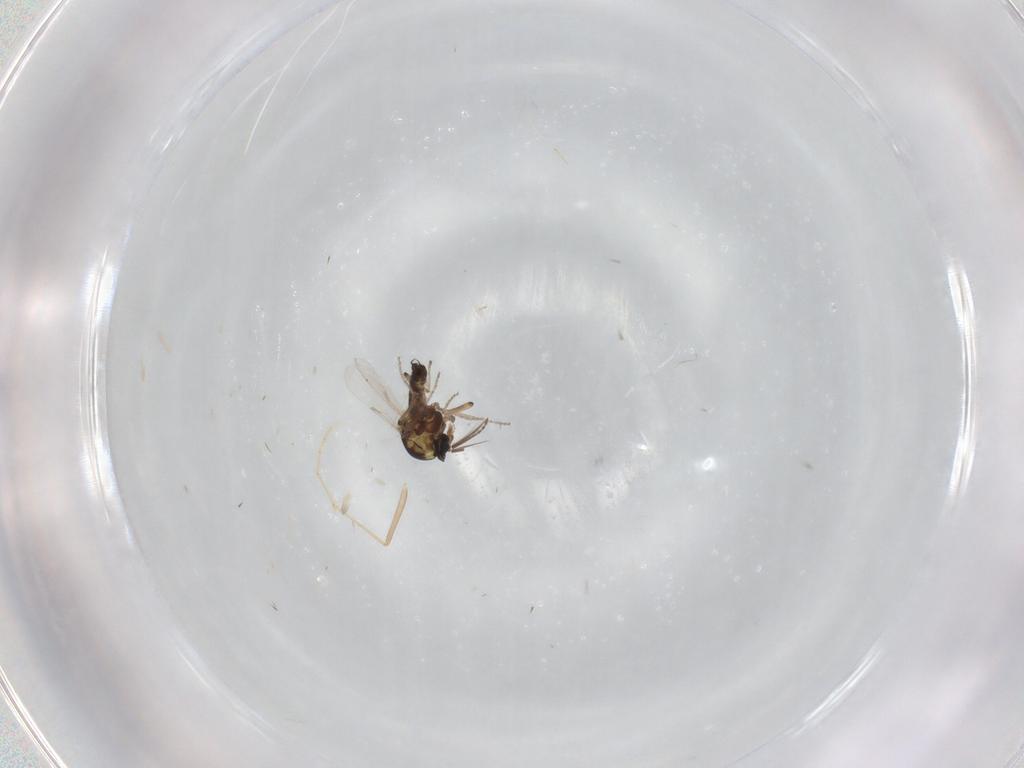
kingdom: Animalia
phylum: Arthropoda
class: Insecta
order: Diptera
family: Cecidomyiidae
